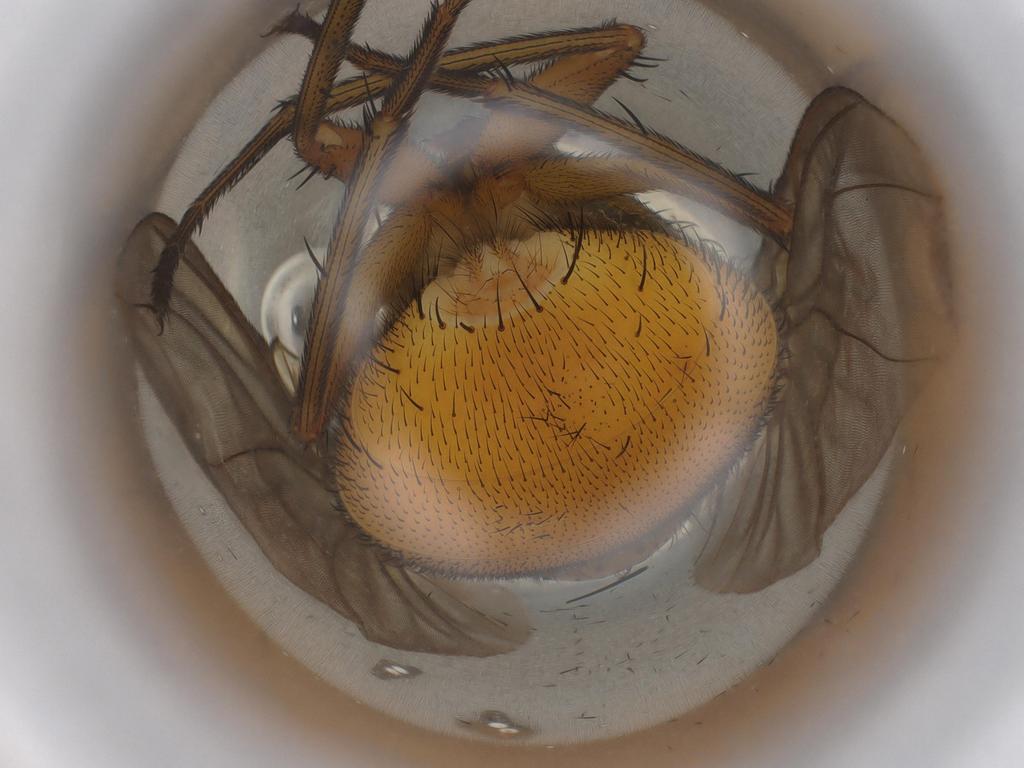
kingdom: Animalia
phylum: Arthropoda
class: Insecta
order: Diptera
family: Muscidae
